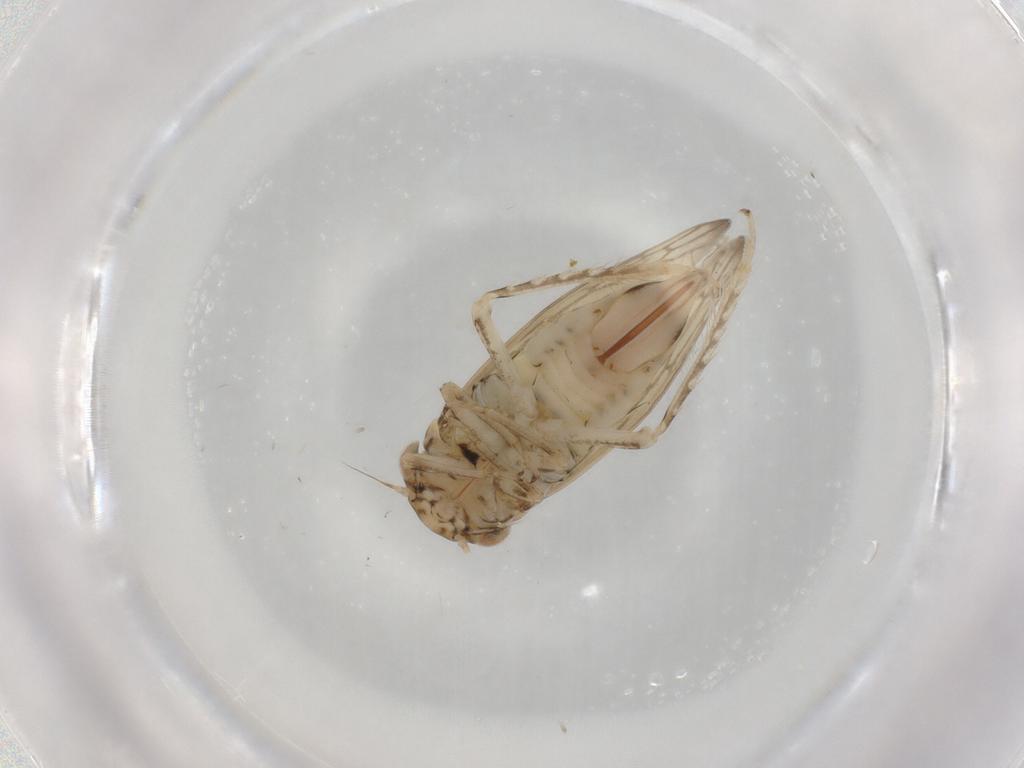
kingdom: Animalia
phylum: Arthropoda
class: Insecta
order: Hemiptera
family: Cicadellidae
